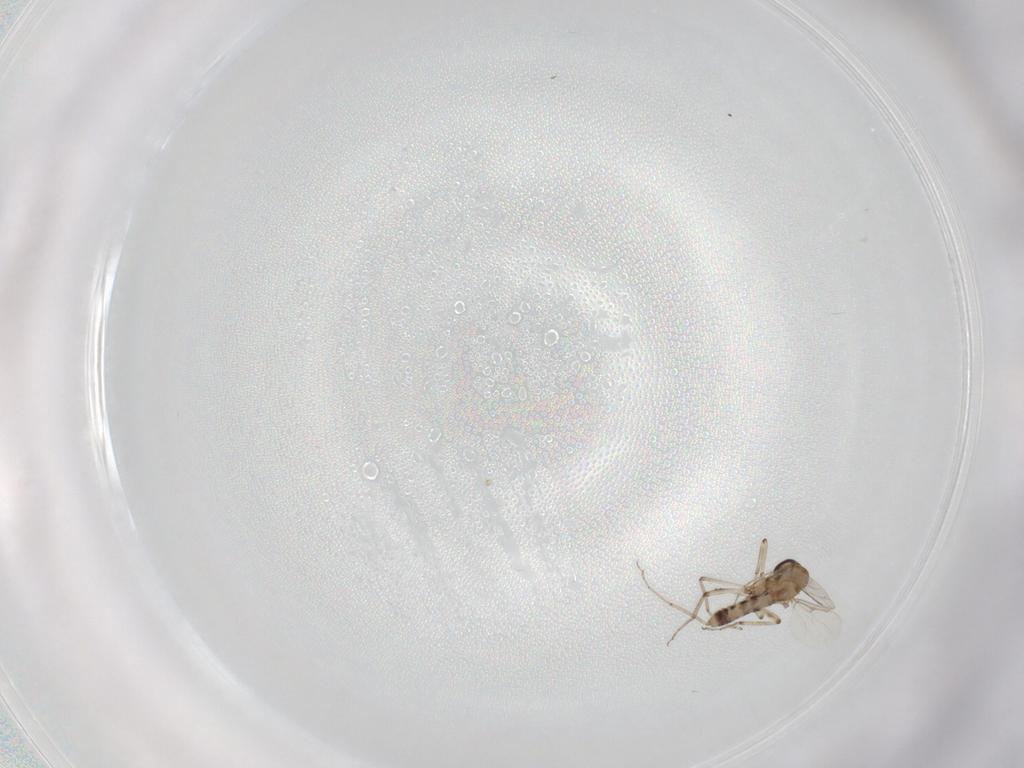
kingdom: Animalia
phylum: Arthropoda
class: Insecta
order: Diptera
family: Ceratopogonidae
